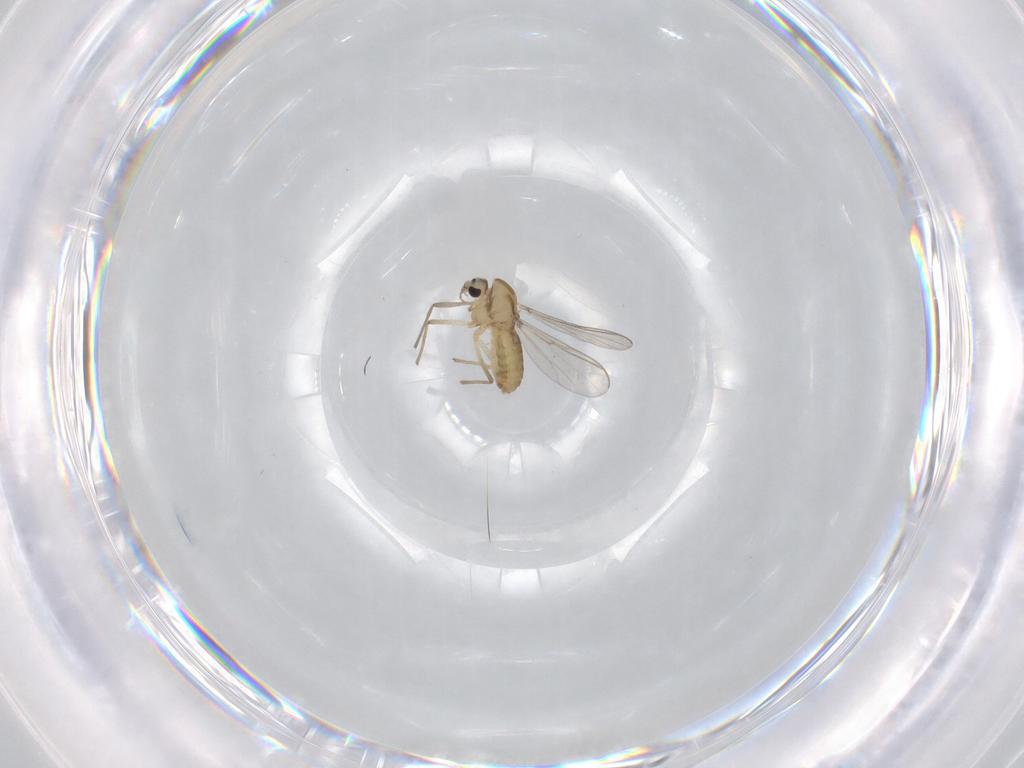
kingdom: Animalia
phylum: Arthropoda
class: Insecta
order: Diptera
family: Chironomidae
